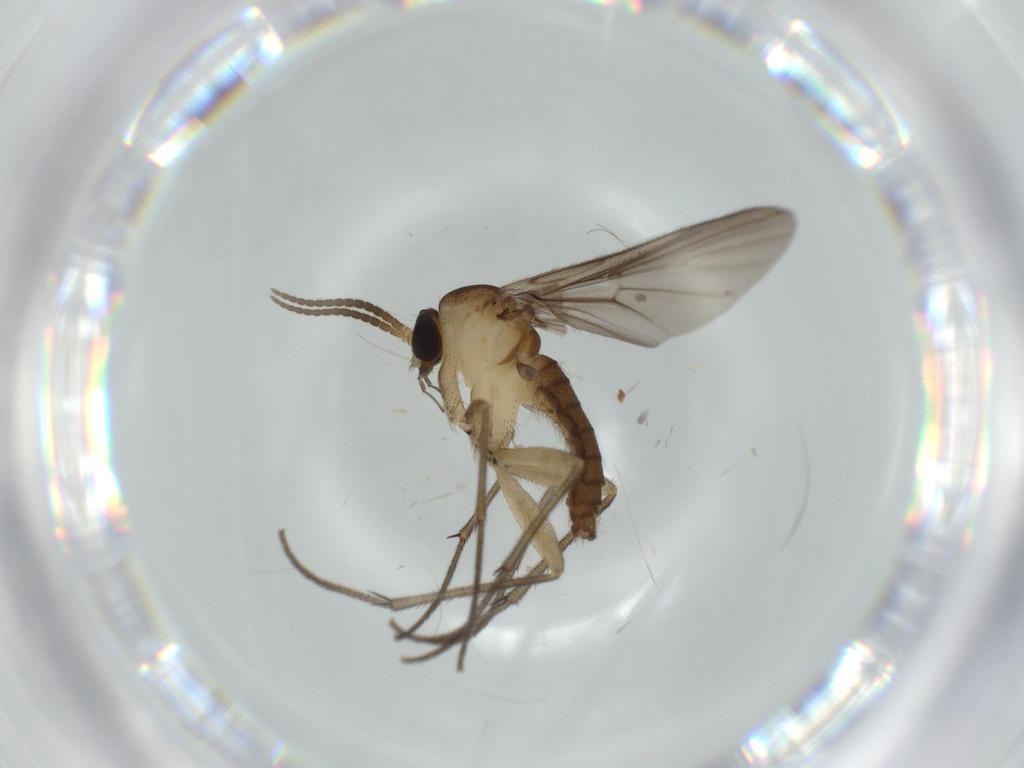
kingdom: Animalia
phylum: Arthropoda
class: Insecta
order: Diptera
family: Diadocidiidae
